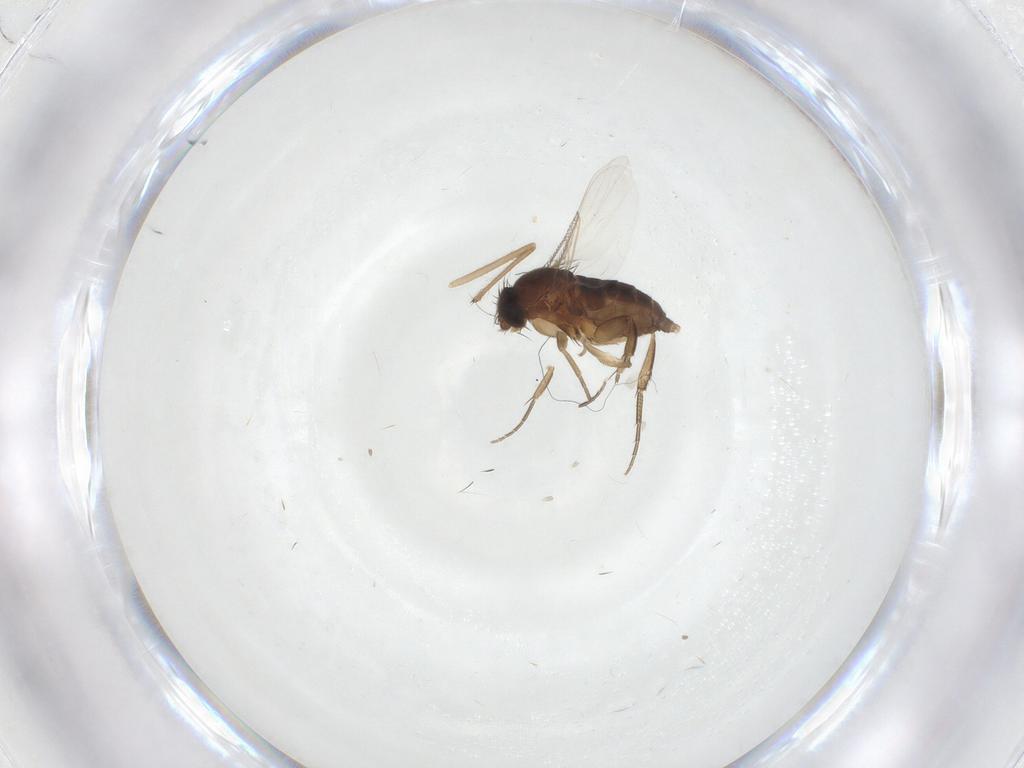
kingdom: Animalia
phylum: Arthropoda
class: Insecta
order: Diptera
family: Phoridae
